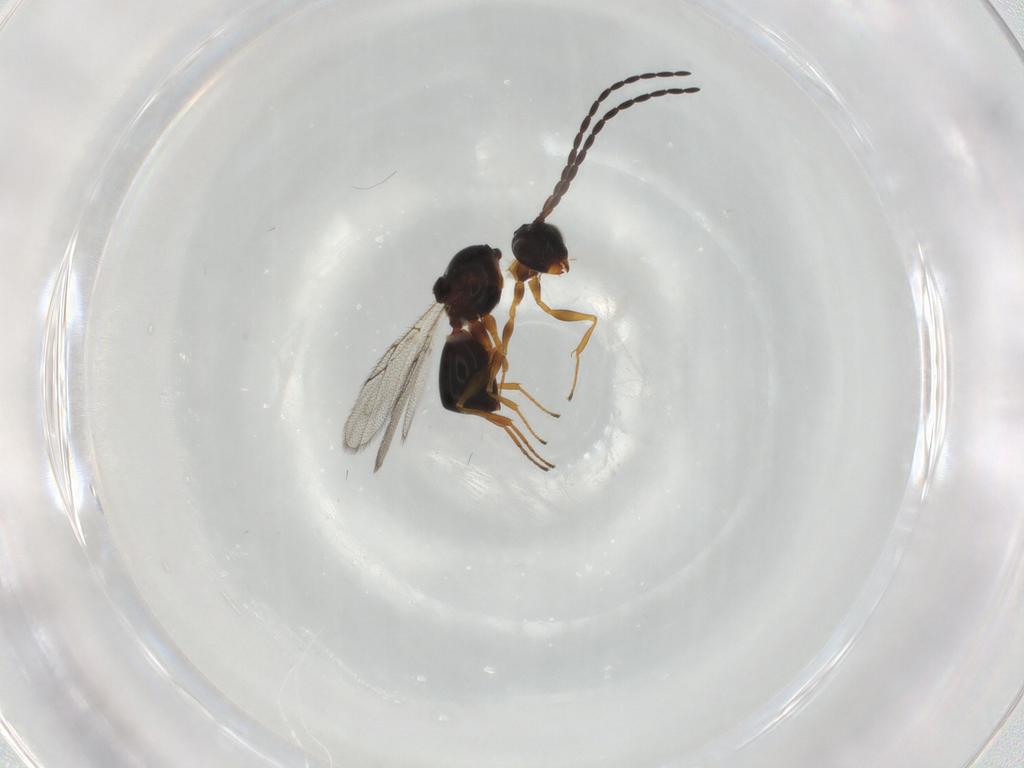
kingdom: Animalia
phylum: Arthropoda
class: Insecta
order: Hymenoptera
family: Figitidae
